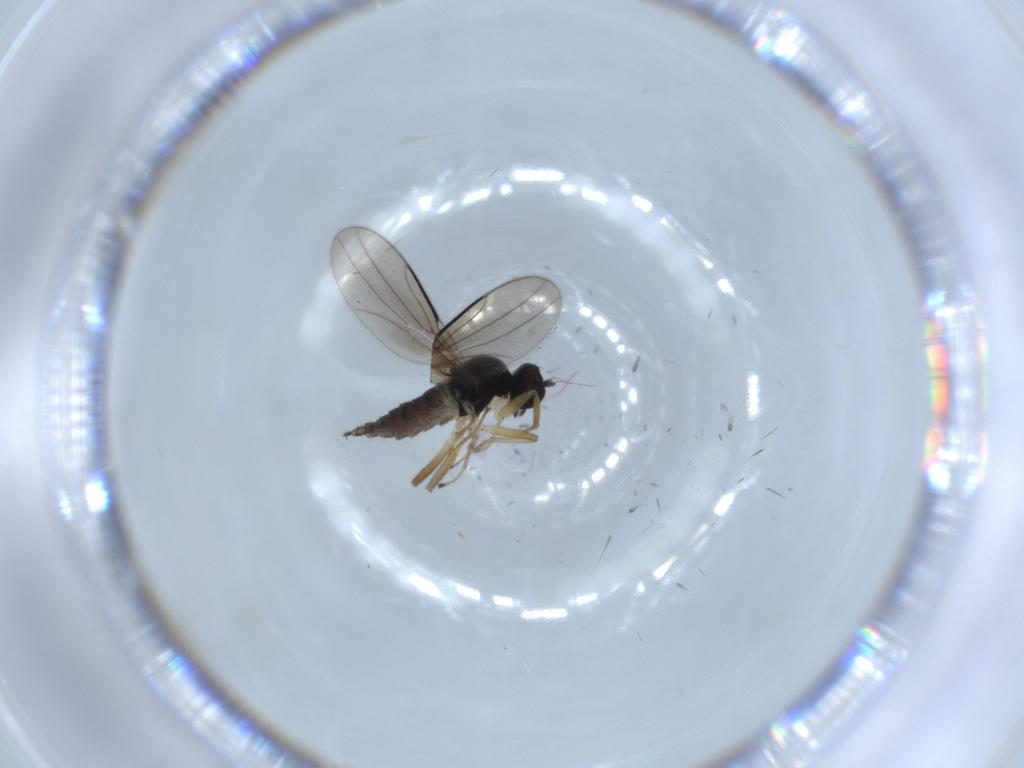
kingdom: Animalia
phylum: Arthropoda
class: Insecta
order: Diptera
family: Hybotidae
